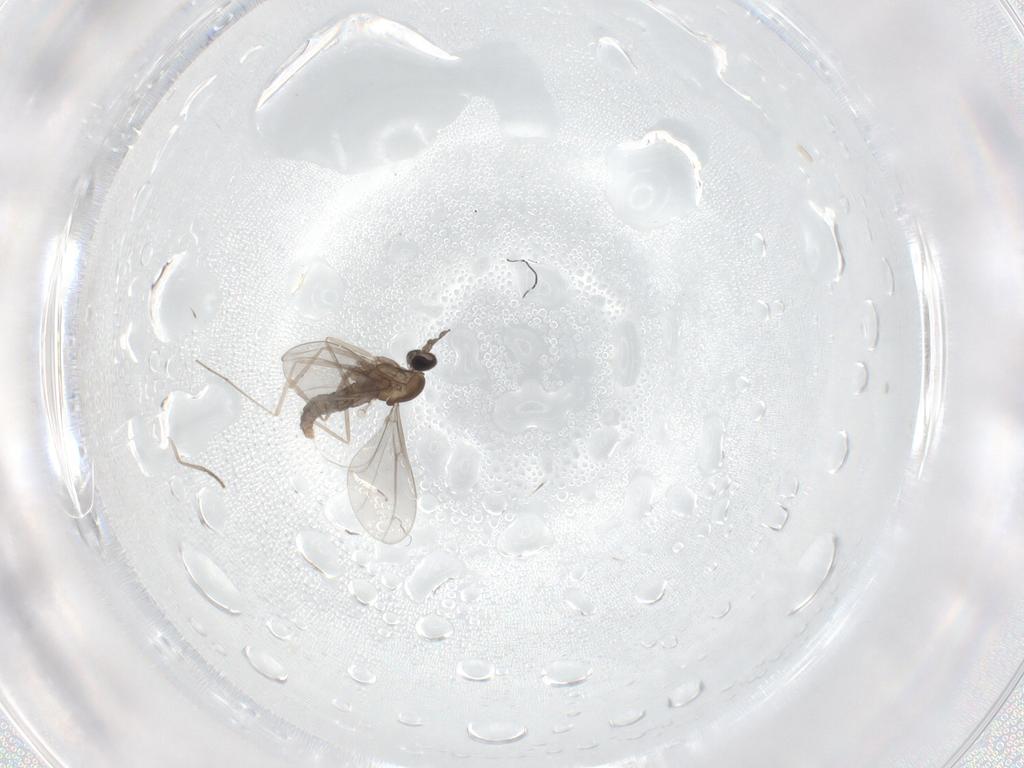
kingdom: Animalia
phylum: Arthropoda
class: Insecta
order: Diptera
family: Cecidomyiidae
